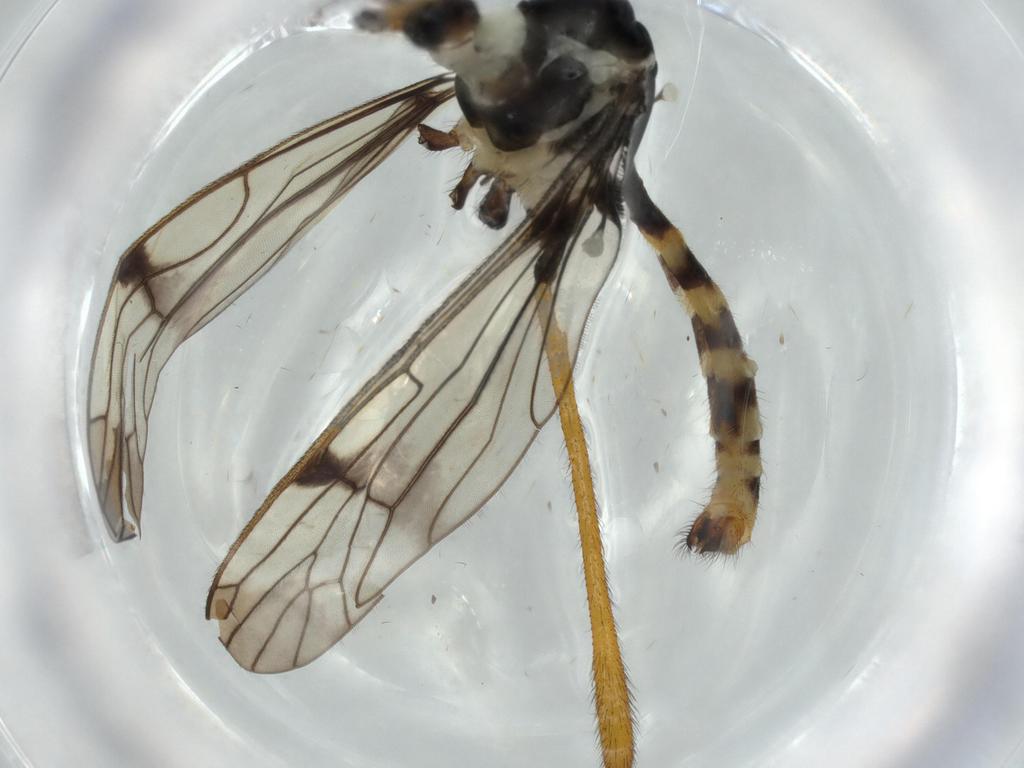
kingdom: Animalia
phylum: Arthropoda
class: Insecta
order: Diptera
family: Limoniidae
